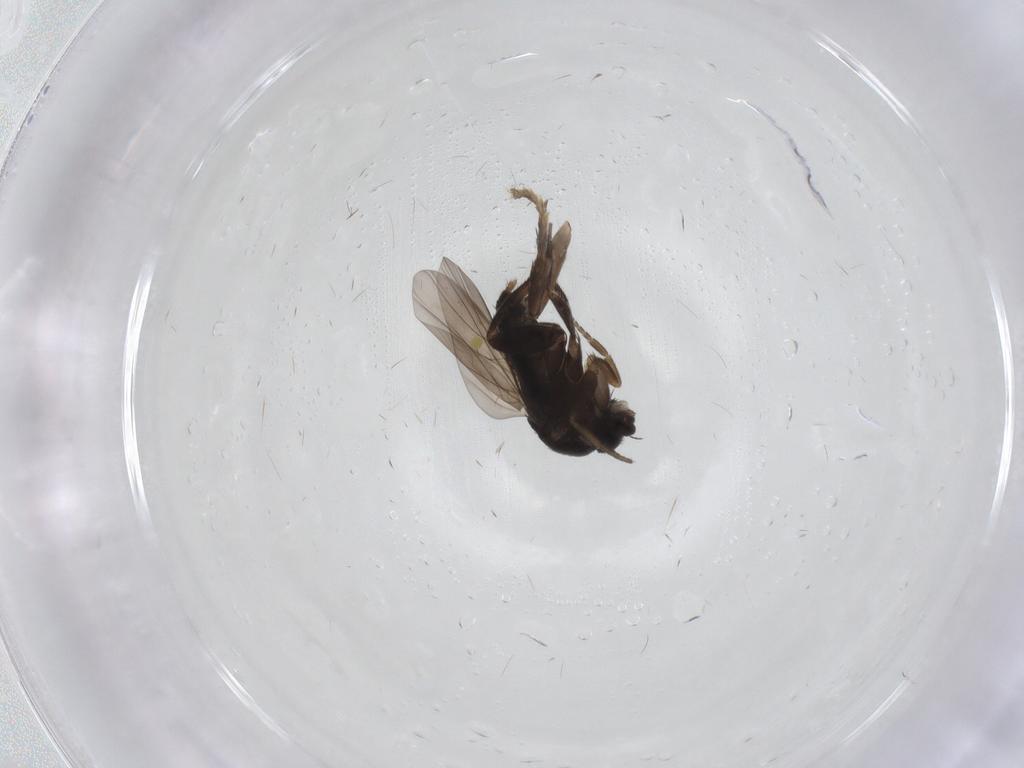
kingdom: Animalia
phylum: Arthropoda
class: Insecta
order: Diptera
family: Phoridae
